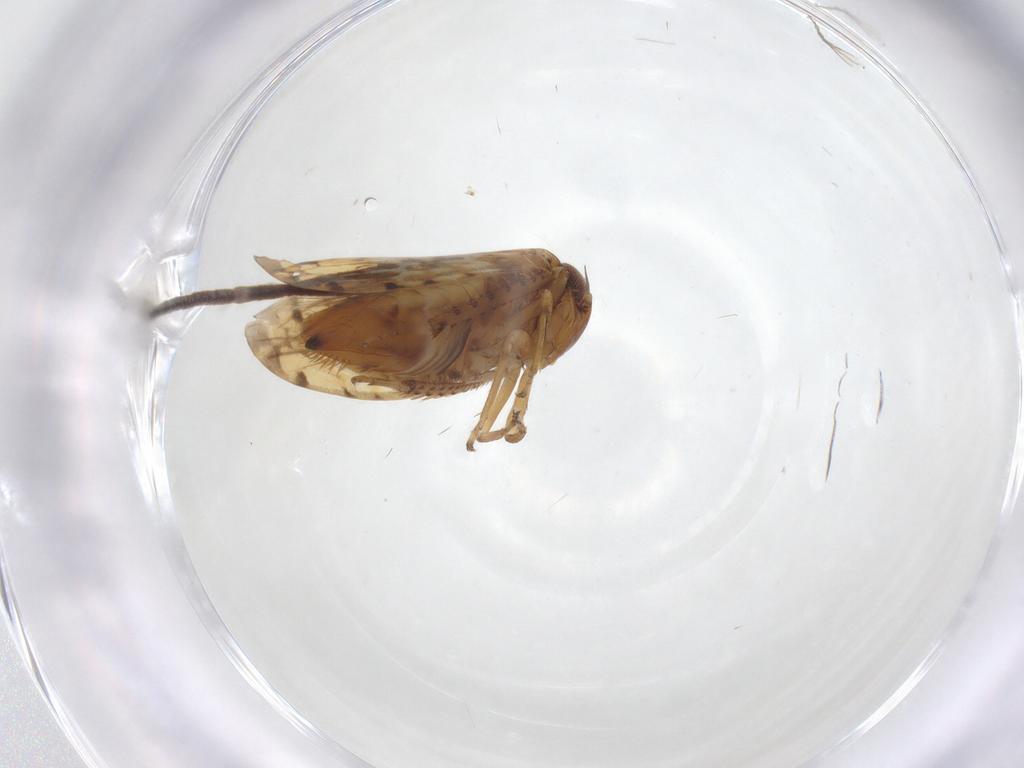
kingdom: Animalia
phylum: Arthropoda
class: Insecta
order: Hemiptera
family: Cicadellidae
